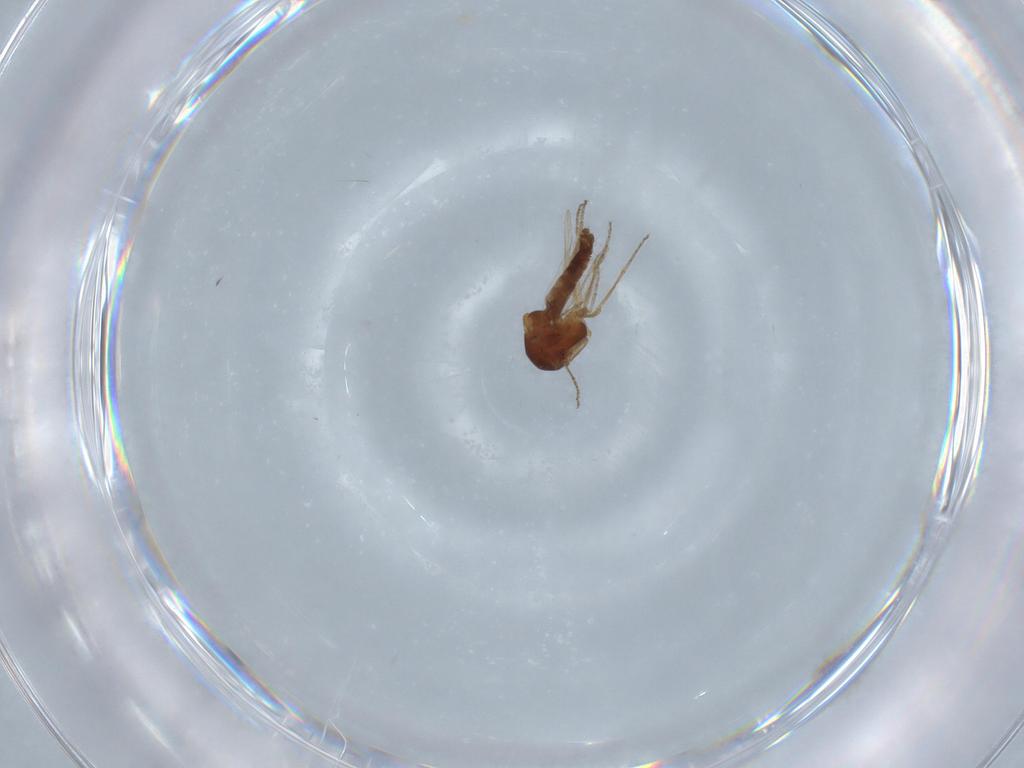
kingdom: Animalia
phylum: Arthropoda
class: Insecta
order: Diptera
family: Ceratopogonidae
